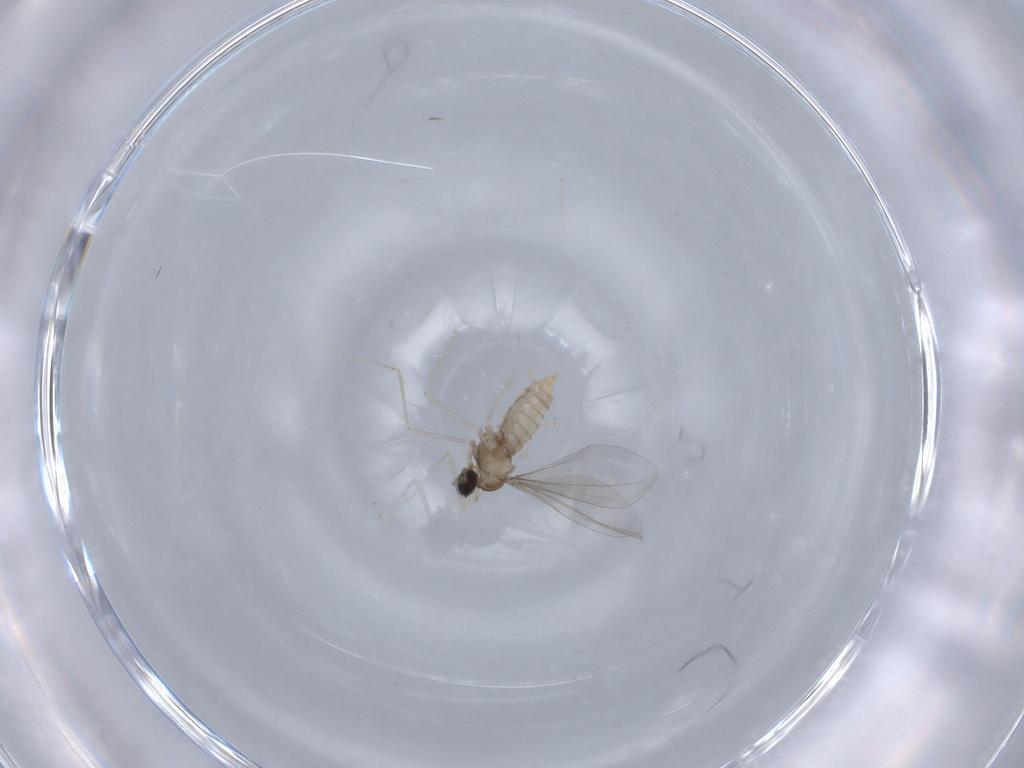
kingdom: Animalia
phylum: Arthropoda
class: Insecta
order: Diptera
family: Cecidomyiidae
